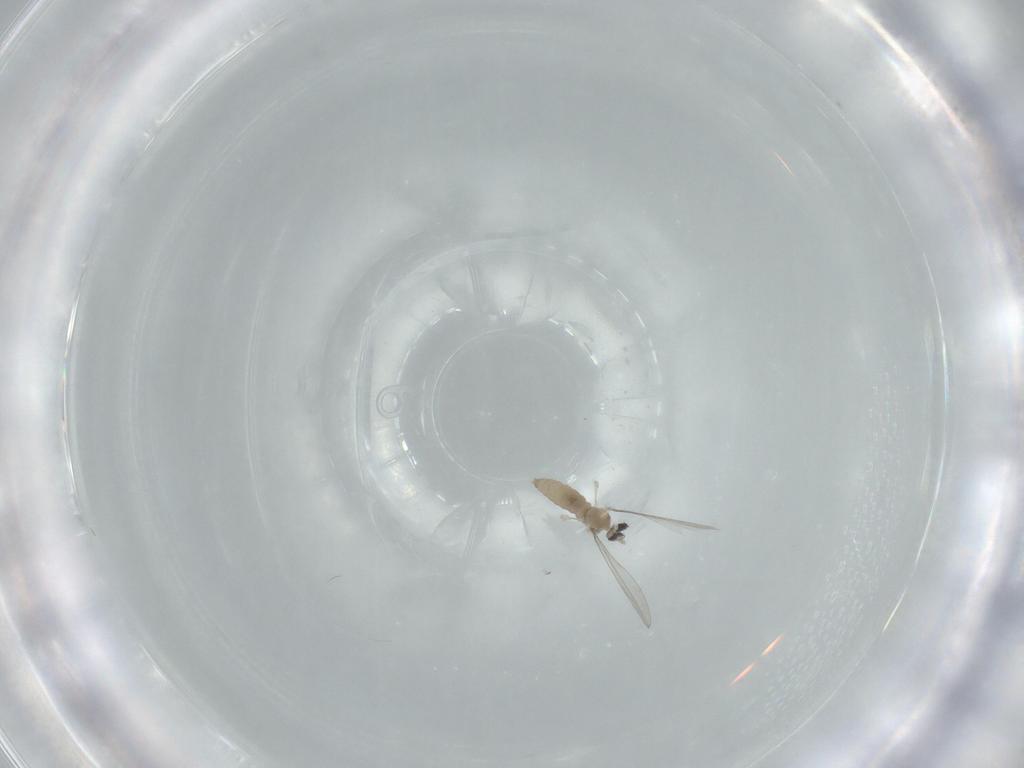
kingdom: Animalia
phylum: Arthropoda
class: Insecta
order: Diptera
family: Cecidomyiidae
